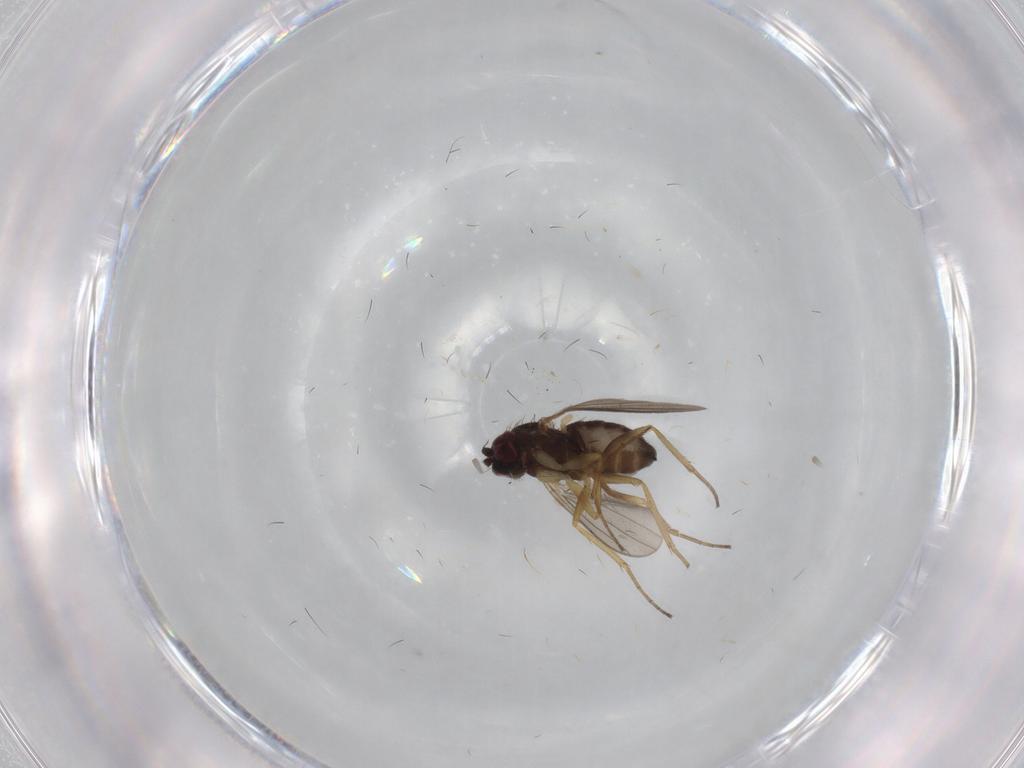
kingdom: Animalia
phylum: Arthropoda
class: Insecta
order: Diptera
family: Dolichopodidae
